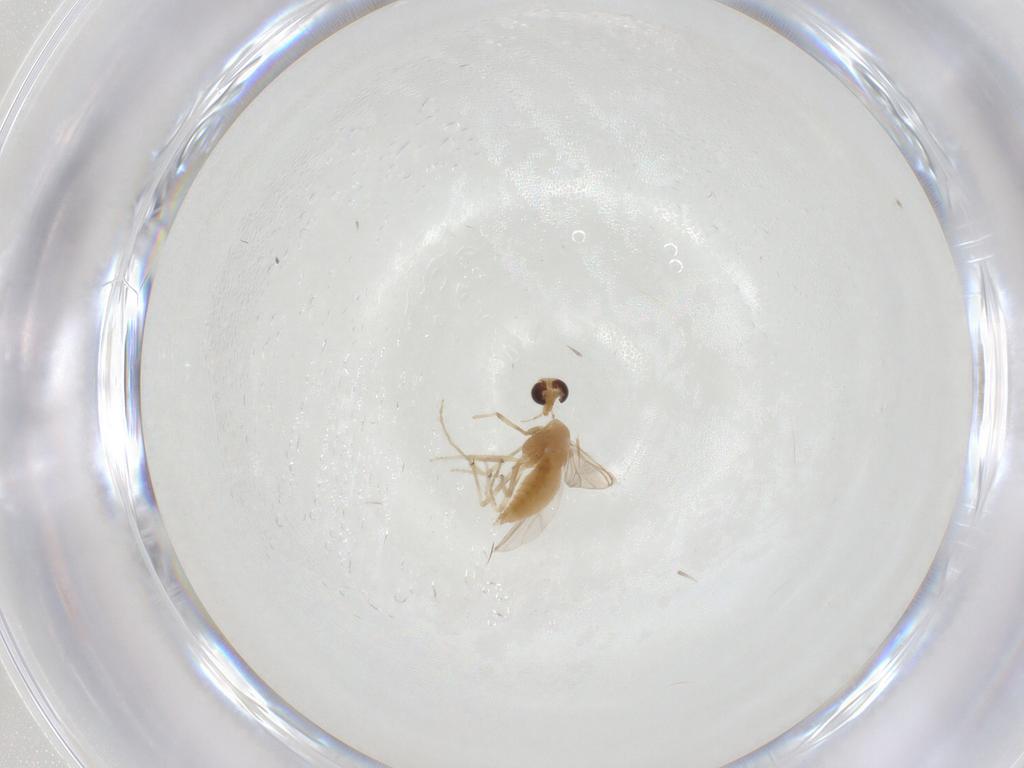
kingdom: Animalia
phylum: Arthropoda
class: Insecta
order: Diptera
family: Chironomidae
